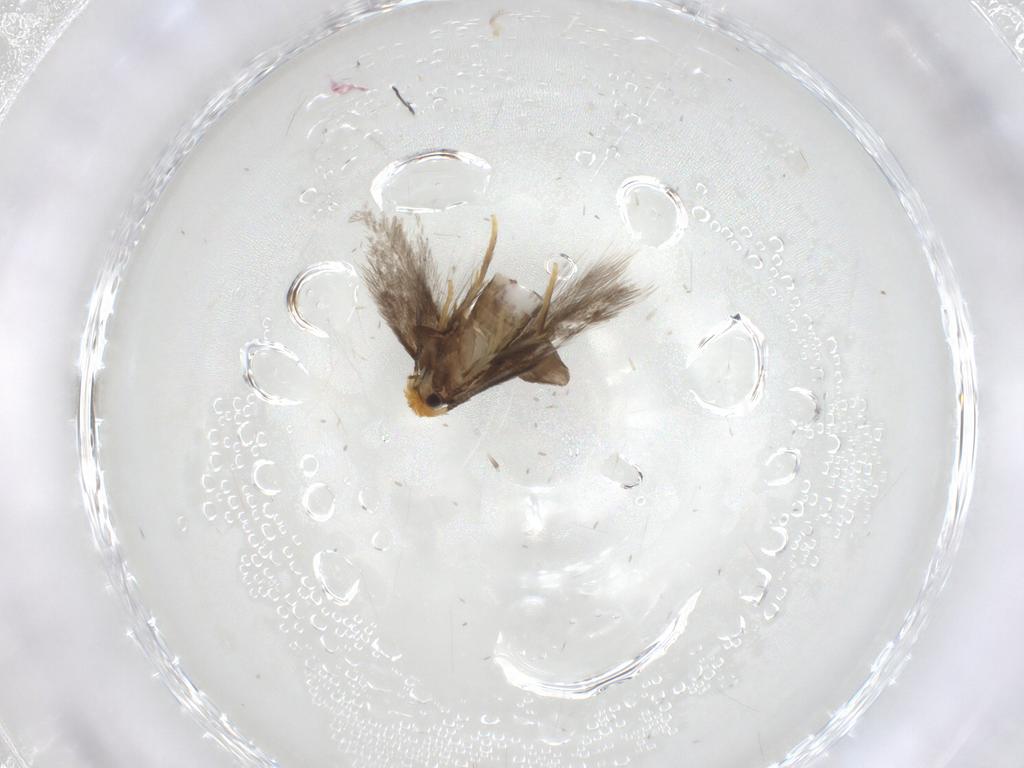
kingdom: Animalia
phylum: Arthropoda
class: Insecta
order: Lepidoptera
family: Nepticulidae
